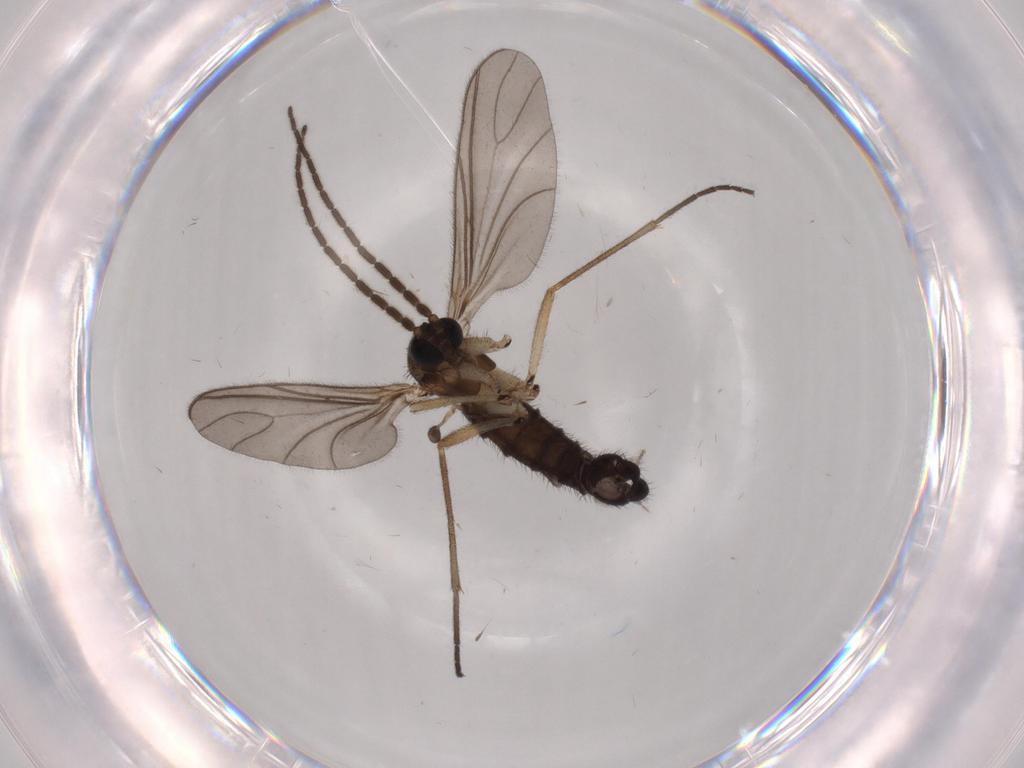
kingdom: Animalia
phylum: Arthropoda
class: Insecta
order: Diptera
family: Sciaridae
